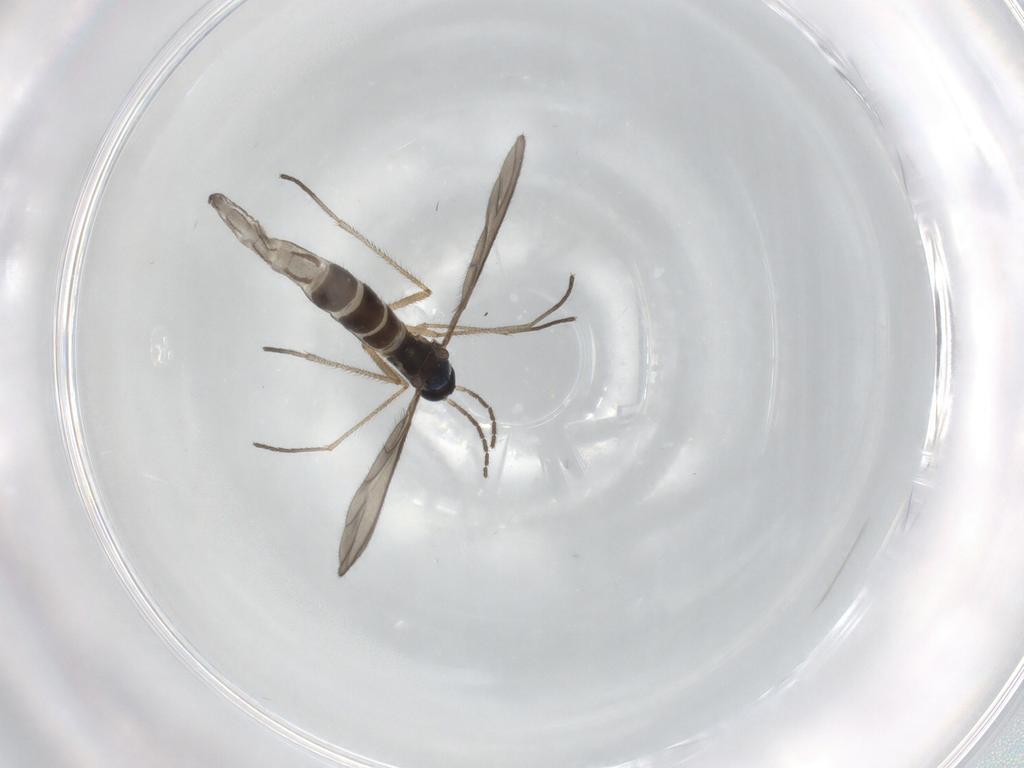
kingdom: Animalia
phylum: Arthropoda
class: Insecta
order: Diptera
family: Sciaridae
